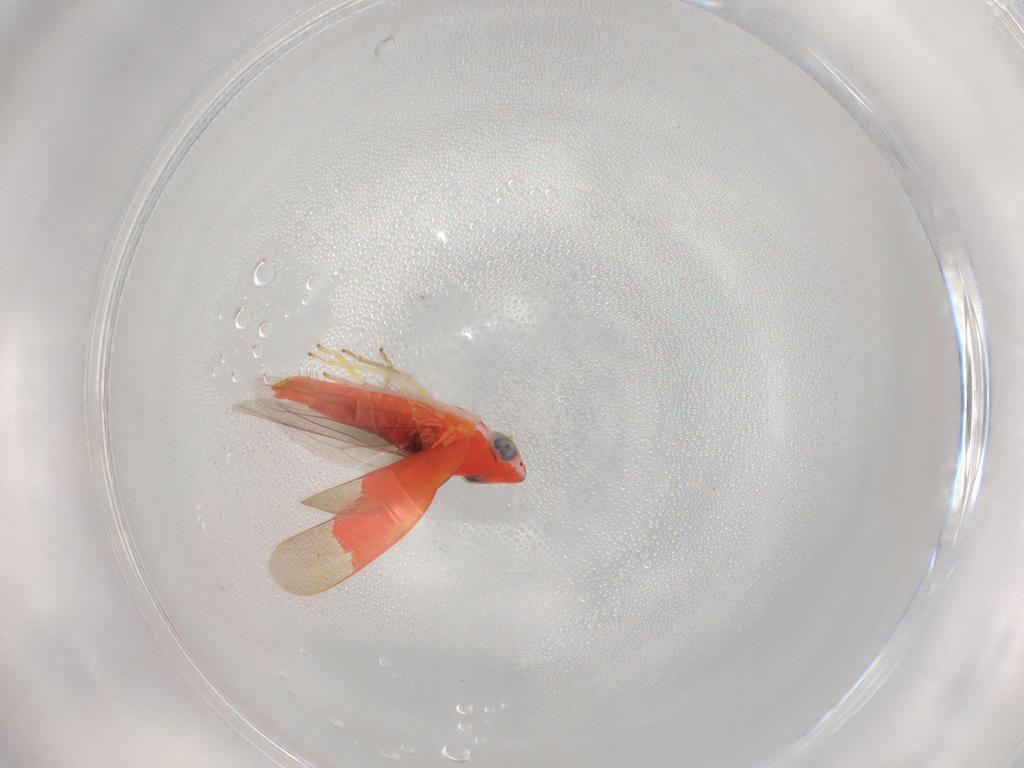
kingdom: Animalia
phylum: Arthropoda
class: Insecta
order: Hemiptera
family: Cicadellidae
